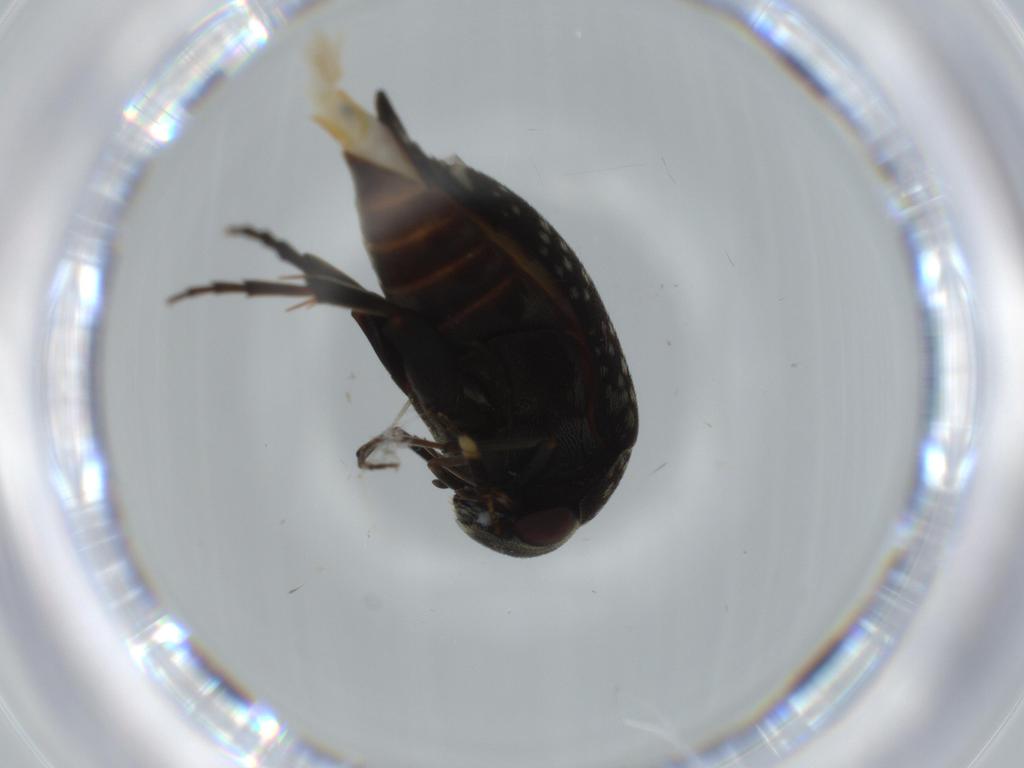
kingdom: Animalia
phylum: Arthropoda
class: Insecta
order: Coleoptera
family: Mordellidae
